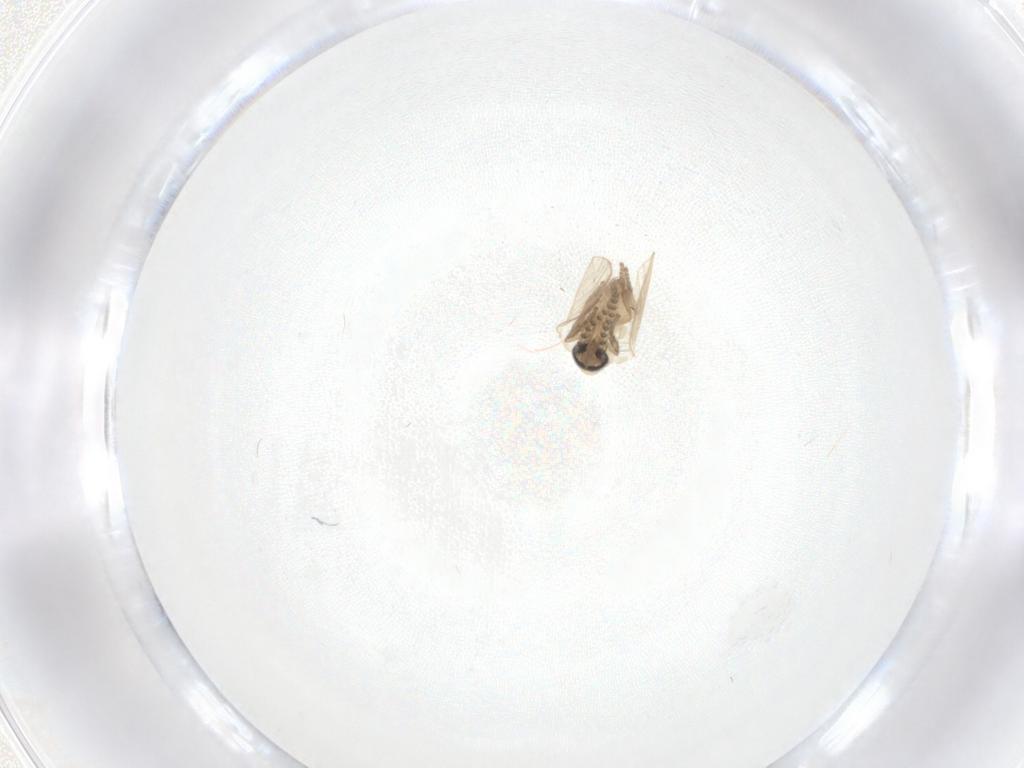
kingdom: Animalia
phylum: Arthropoda
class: Insecta
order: Diptera
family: Psychodidae
